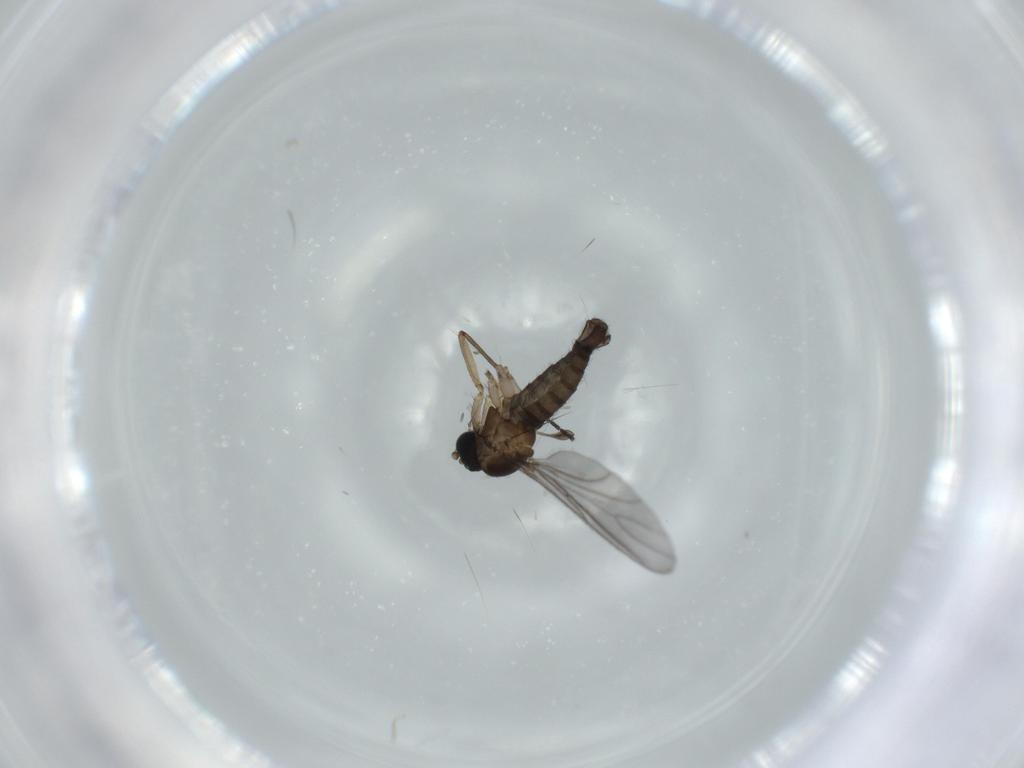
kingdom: Animalia
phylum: Arthropoda
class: Insecta
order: Diptera
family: Sciaridae
